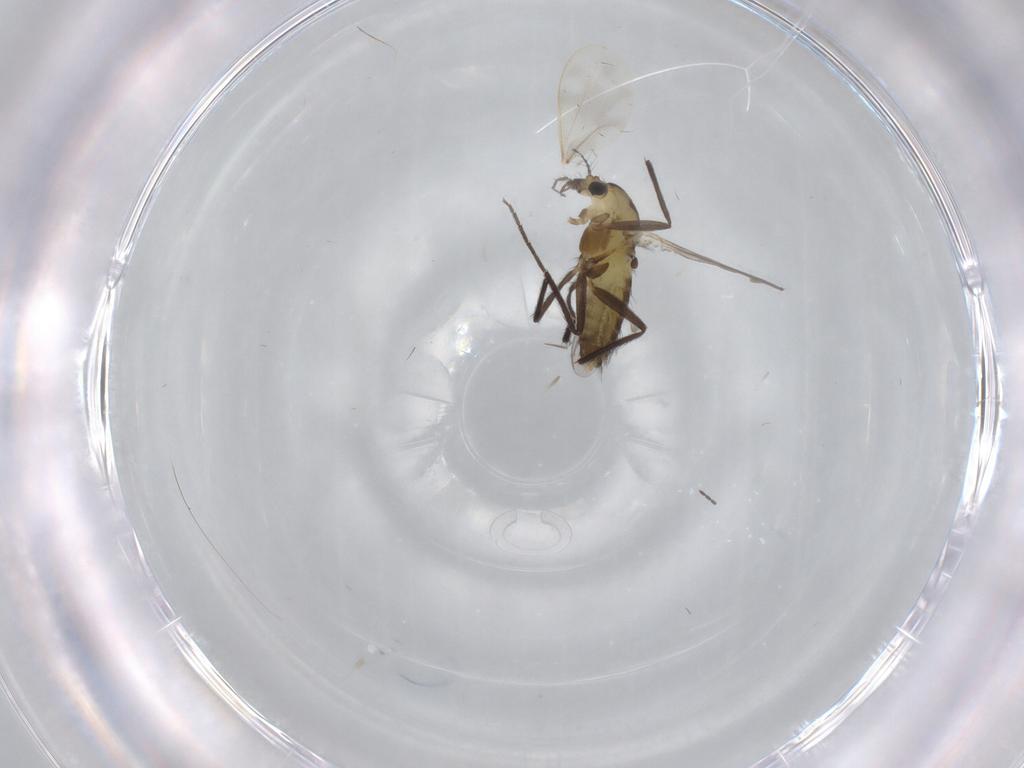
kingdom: Animalia
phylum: Arthropoda
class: Insecta
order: Diptera
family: Chironomidae
